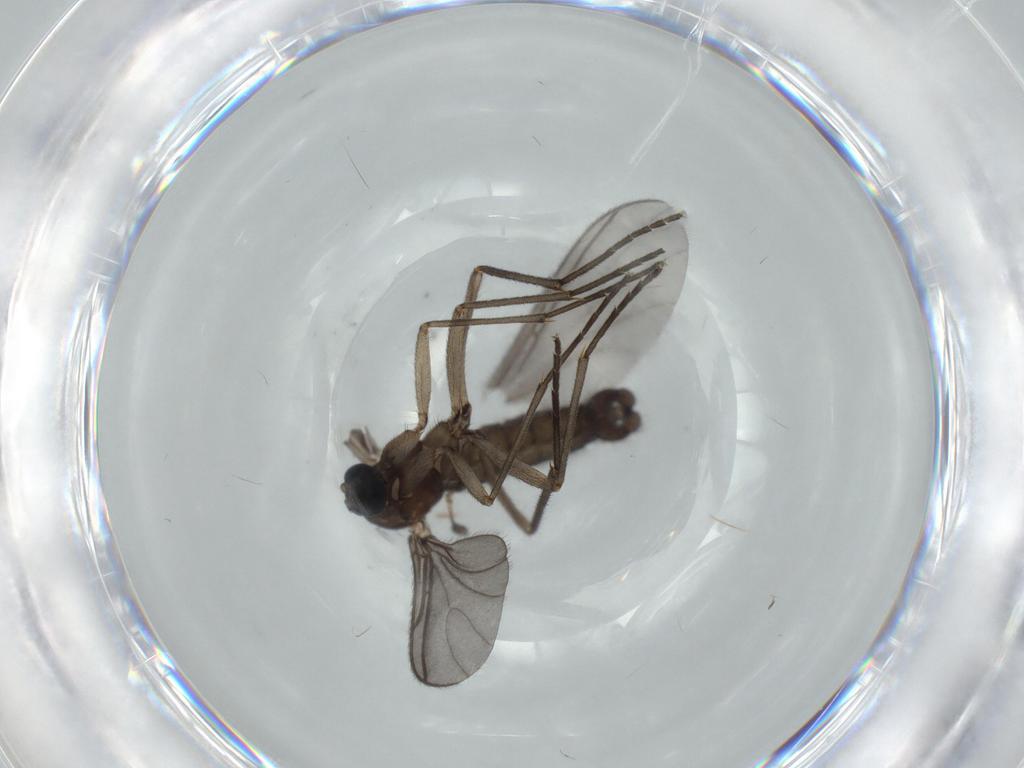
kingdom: Animalia
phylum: Arthropoda
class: Insecta
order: Diptera
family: Sciaridae
